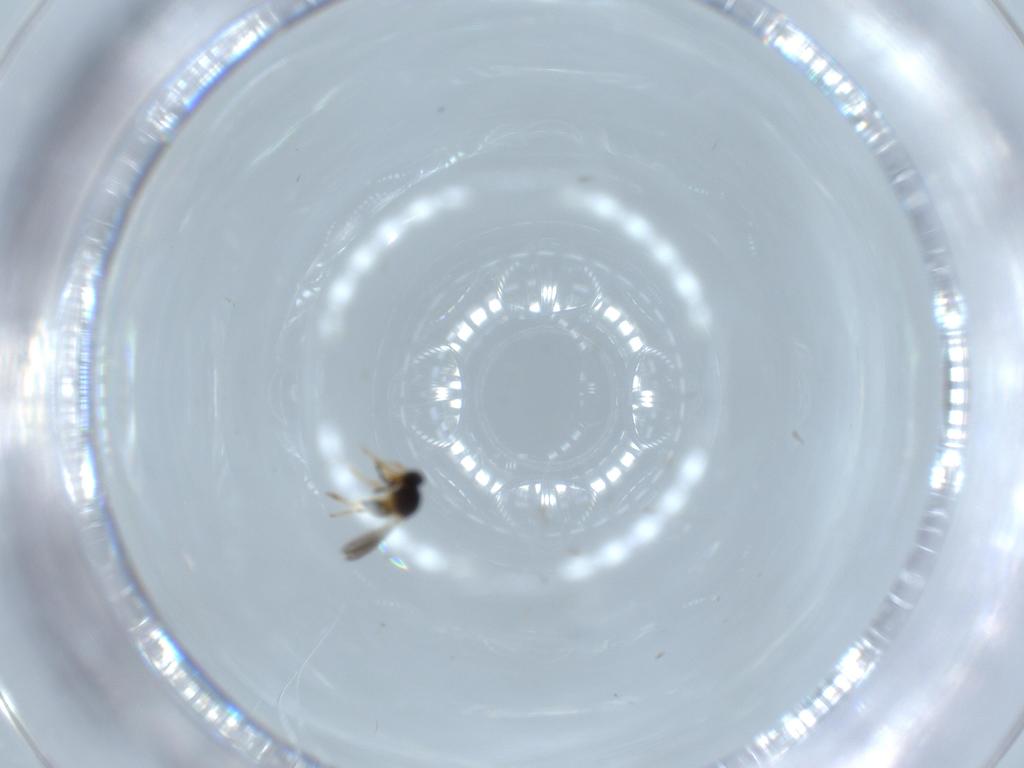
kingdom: Animalia
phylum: Arthropoda
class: Insecta
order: Hymenoptera
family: Platygastridae
